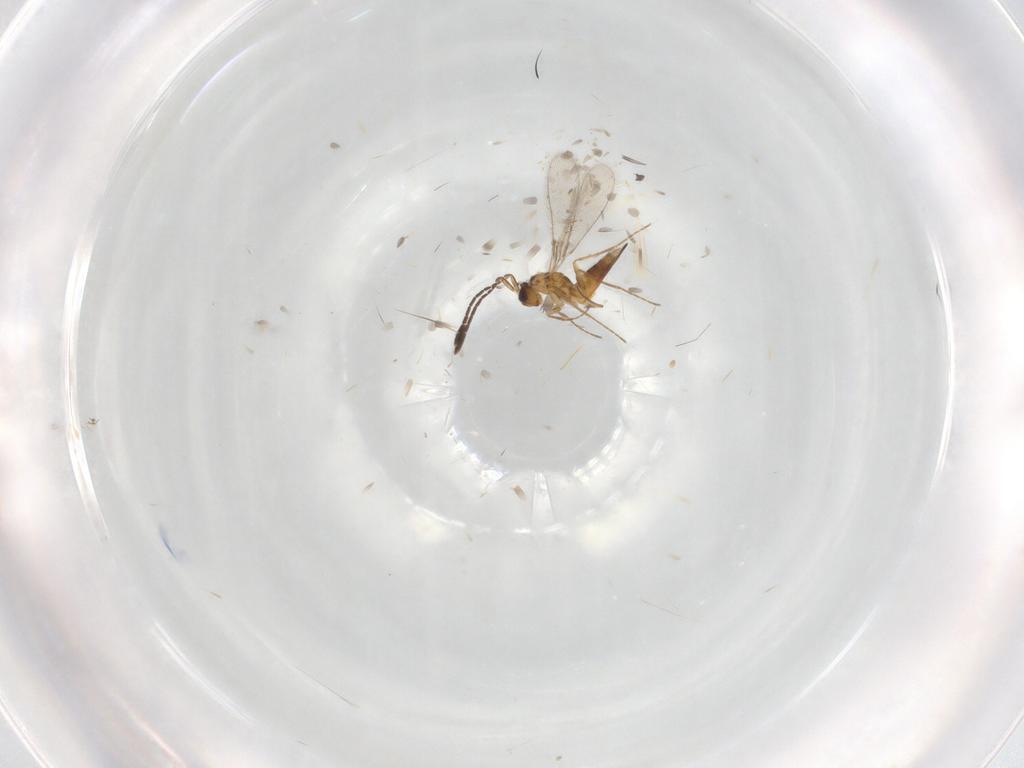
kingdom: Animalia
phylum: Arthropoda
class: Insecta
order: Hymenoptera
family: Mymaridae
